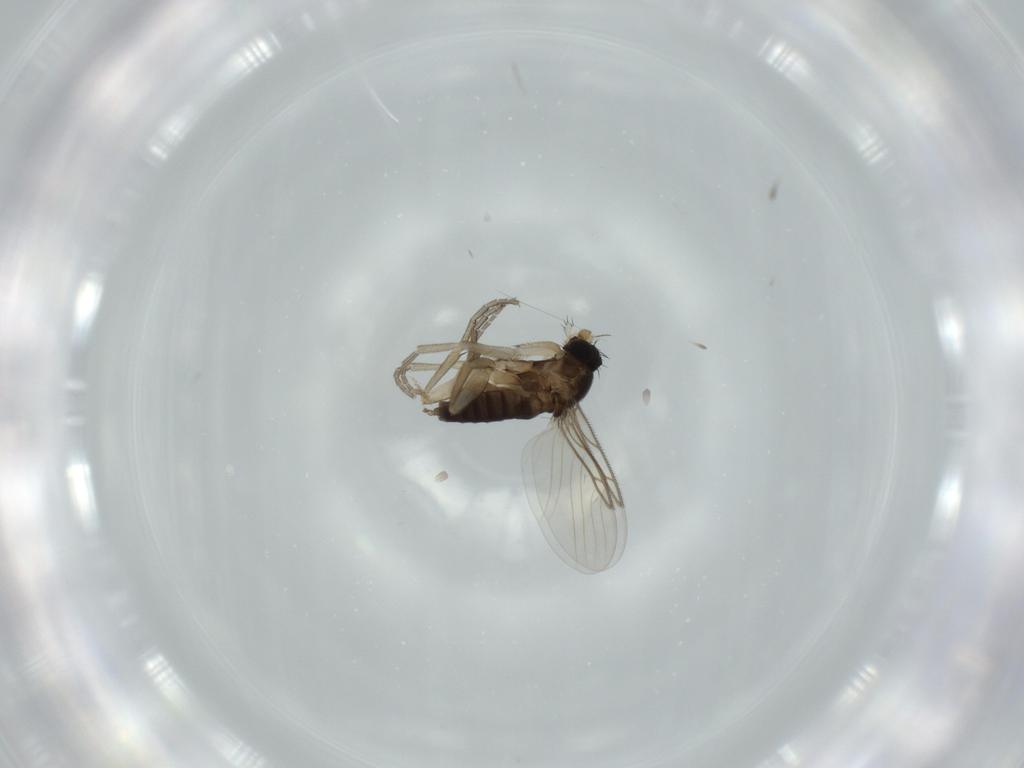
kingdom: Animalia
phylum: Arthropoda
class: Insecta
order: Diptera
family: Phoridae
